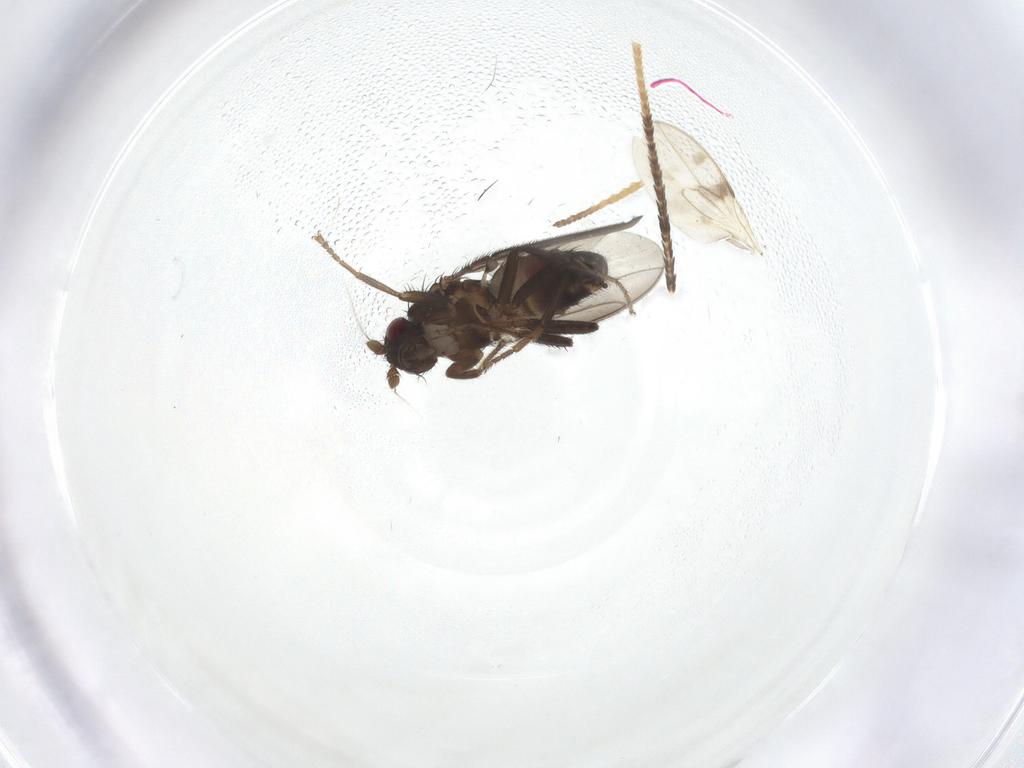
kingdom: Animalia
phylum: Arthropoda
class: Insecta
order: Diptera
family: Sphaeroceridae
